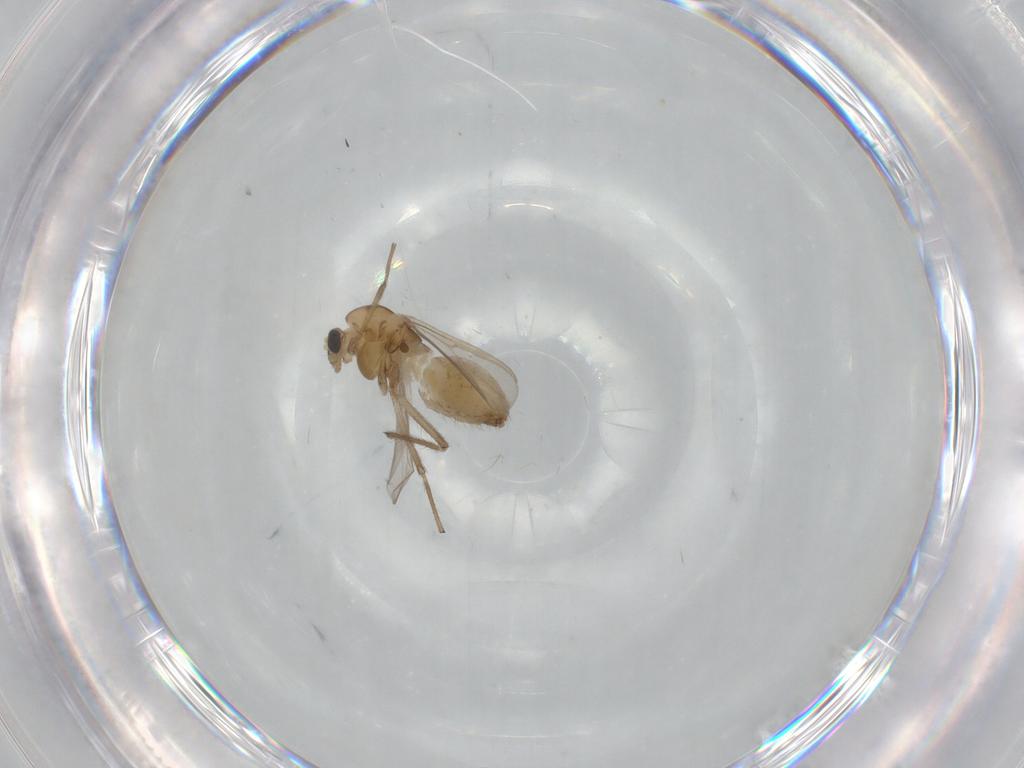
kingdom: Animalia
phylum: Arthropoda
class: Insecta
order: Diptera
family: Chironomidae
